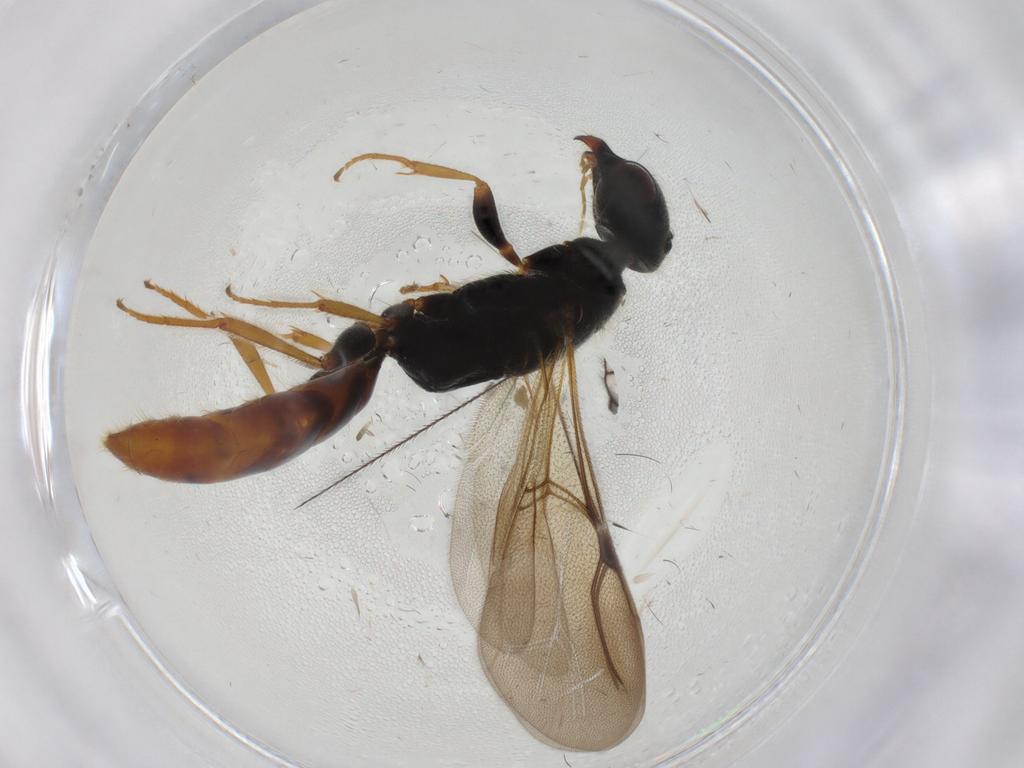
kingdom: Animalia
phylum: Arthropoda
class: Insecta
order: Hymenoptera
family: Bethylidae
